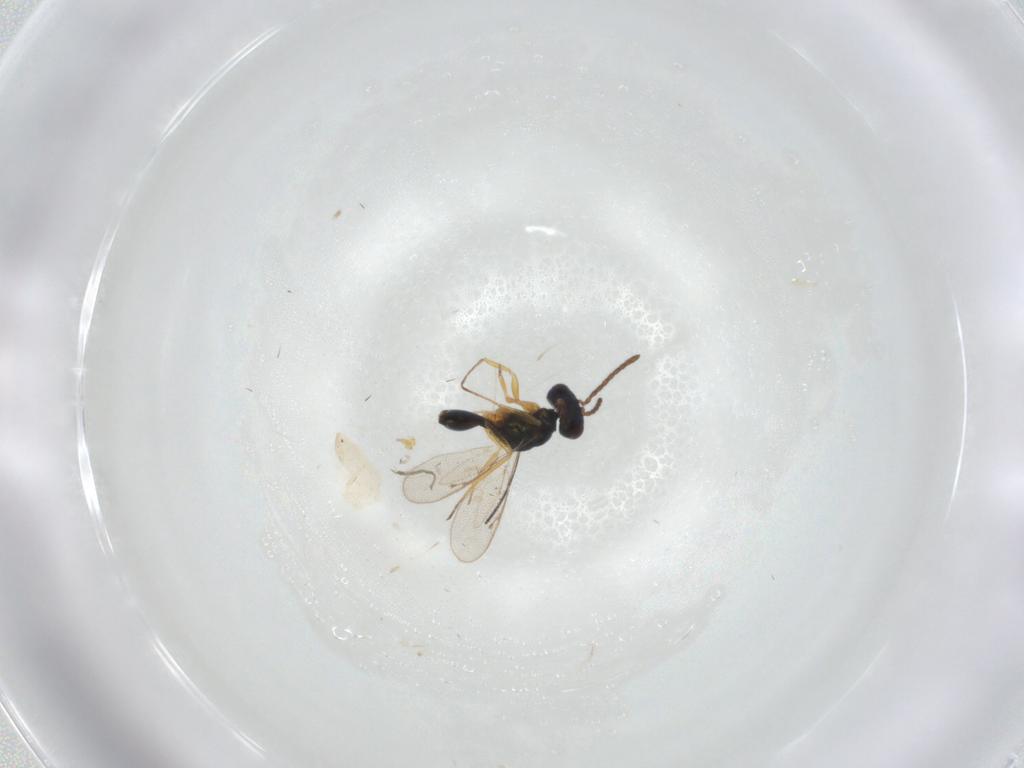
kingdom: Animalia
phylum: Arthropoda
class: Insecta
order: Hymenoptera
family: Pteromalidae
